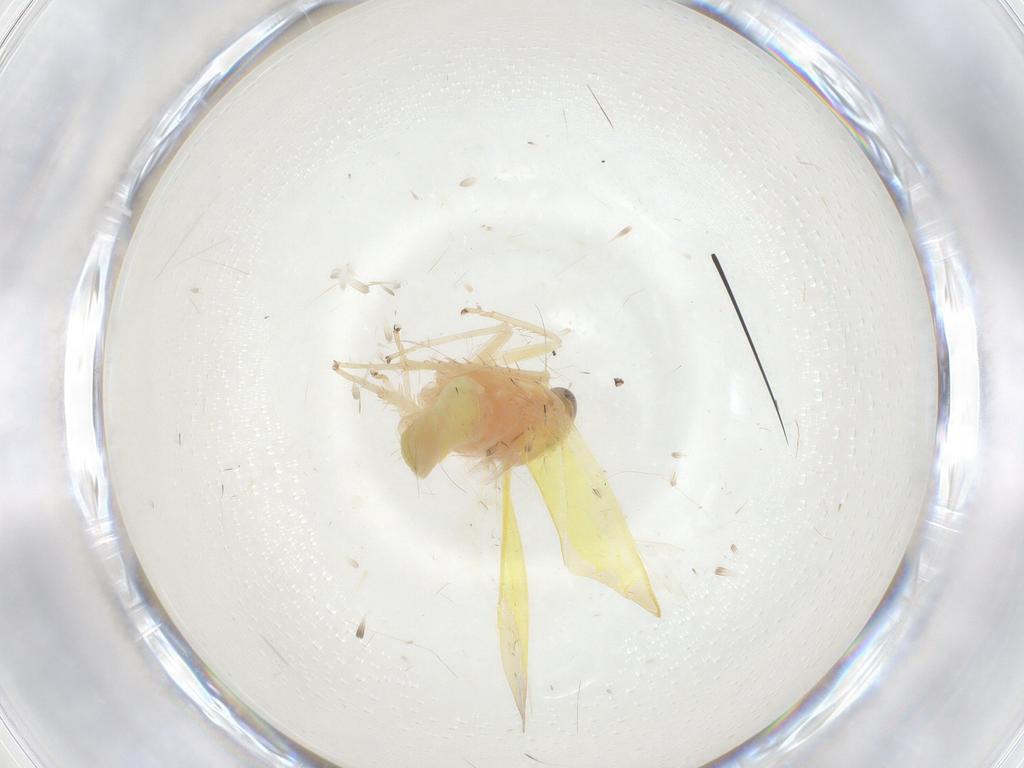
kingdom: Animalia
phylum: Arthropoda
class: Insecta
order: Hemiptera
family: Cicadellidae
